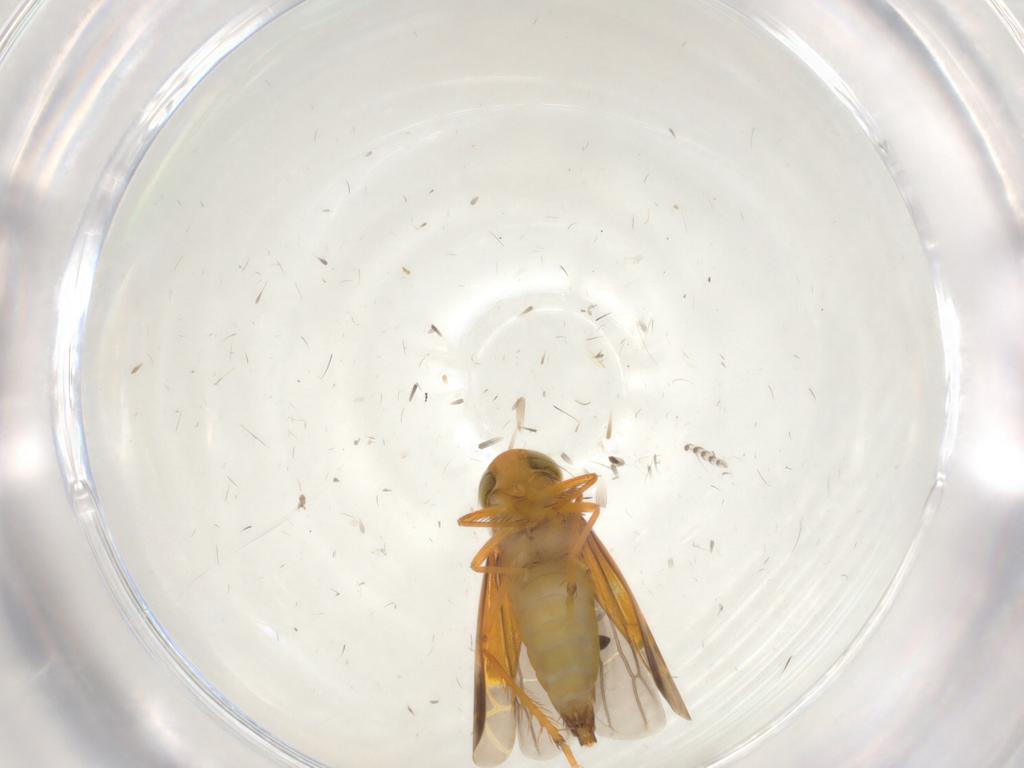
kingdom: Animalia
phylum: Arthropoda
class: Insecta
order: Hemiptera
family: Cicadellidae
